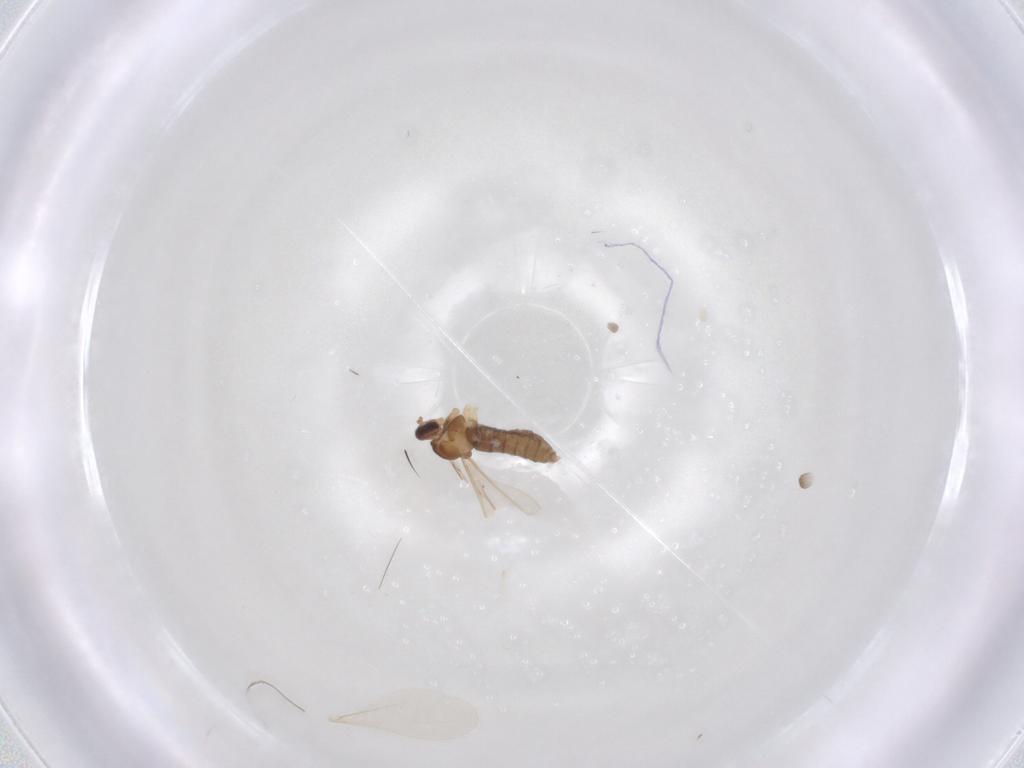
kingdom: Animalia
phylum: Arthropoda
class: Insecta
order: Diptera
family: Cecidomyiidae
